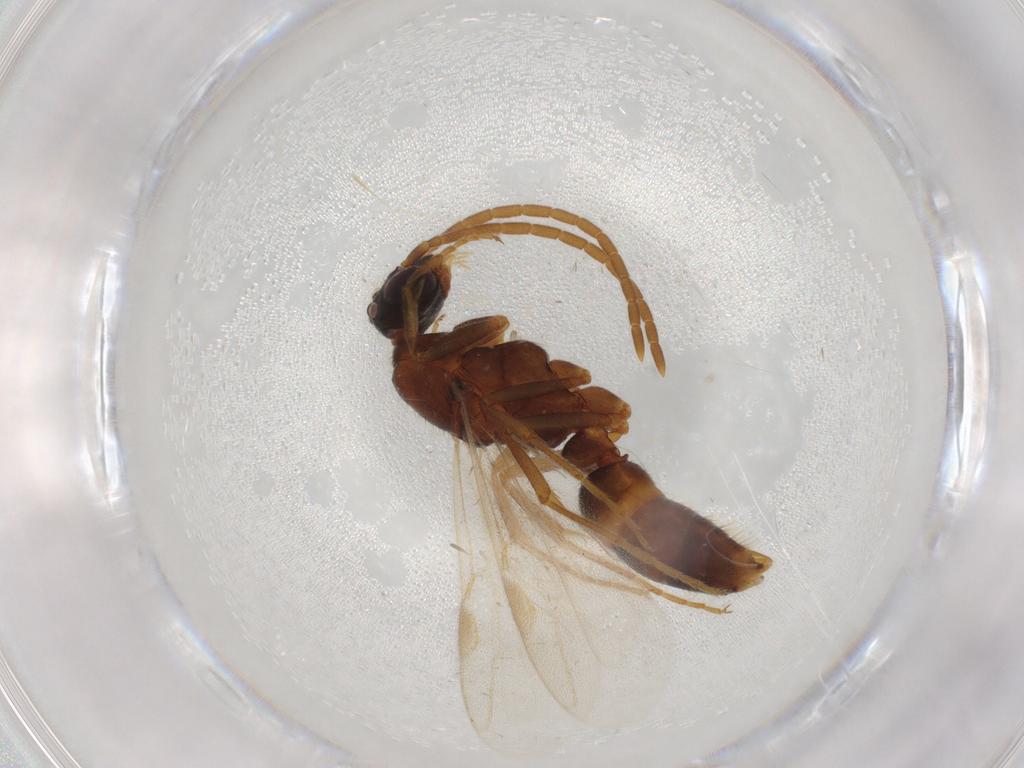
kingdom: Animalia
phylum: Arthropoda
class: Insecta
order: Hymenoptera
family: Formicidae
